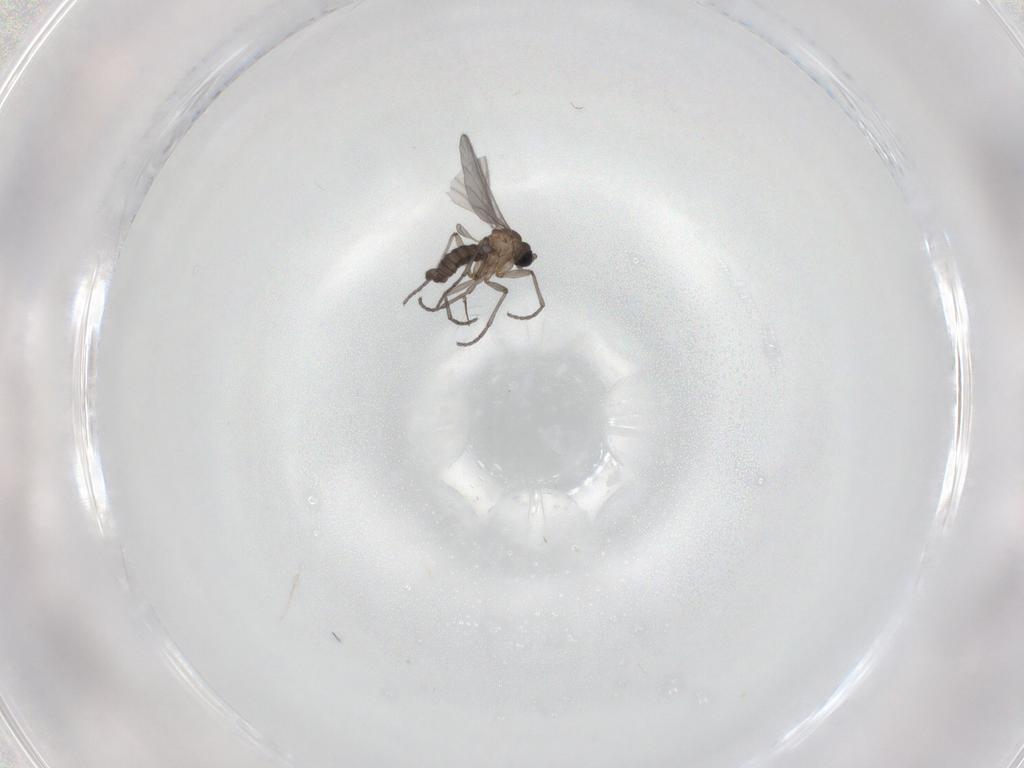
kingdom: Animalia
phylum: Arthropoda
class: Insecta
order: Diptera
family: Sciaridae
